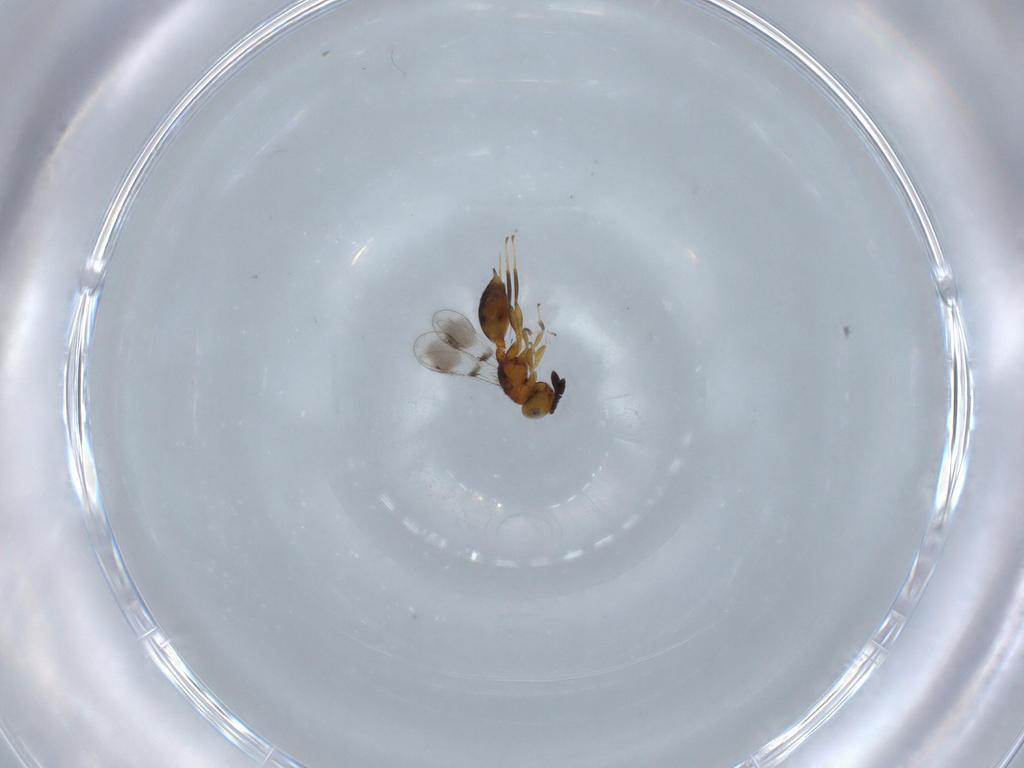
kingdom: Animalia
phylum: Arthropoda
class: Insecta
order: Hymenoptera
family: Moranilidae
